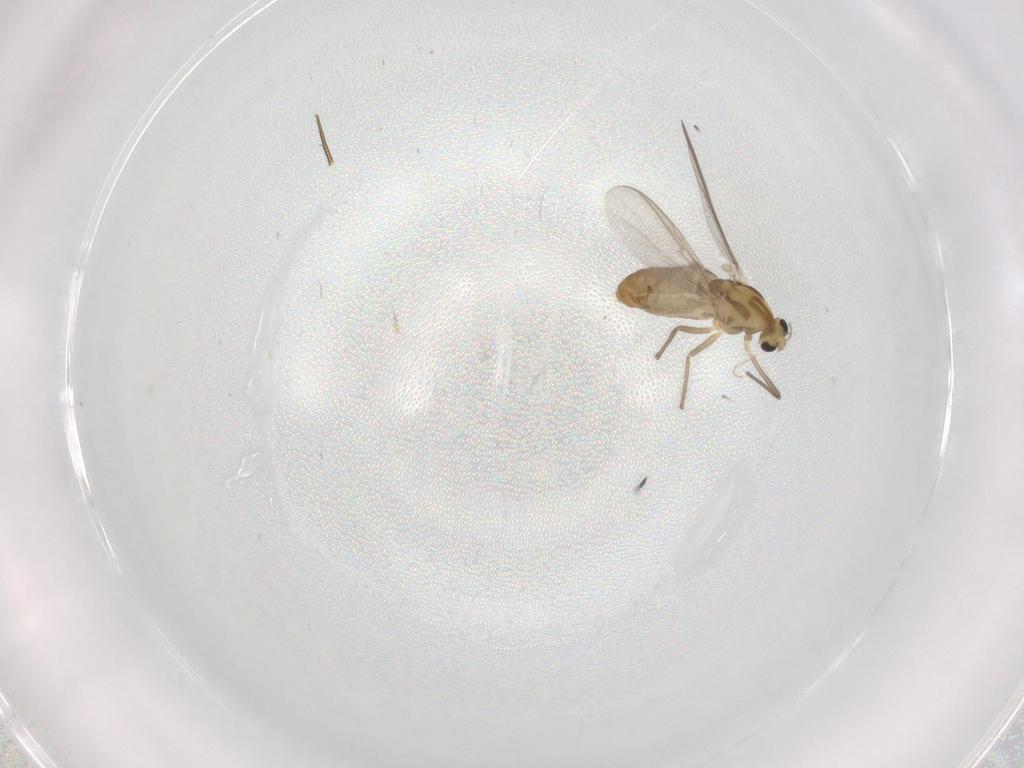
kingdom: Animalia
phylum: Arthropoda
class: Insecta
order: Diptera
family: Chironomidae
